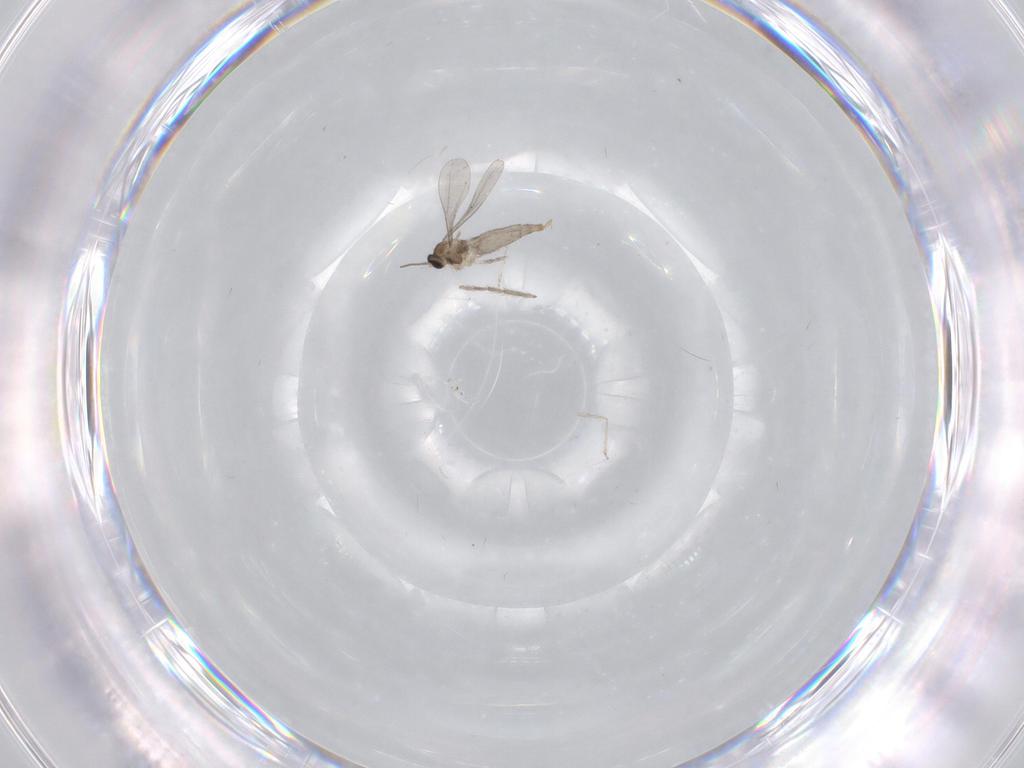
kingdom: Animalia
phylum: Arthropoda
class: Insecta
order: Diptera
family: Chironomidae
